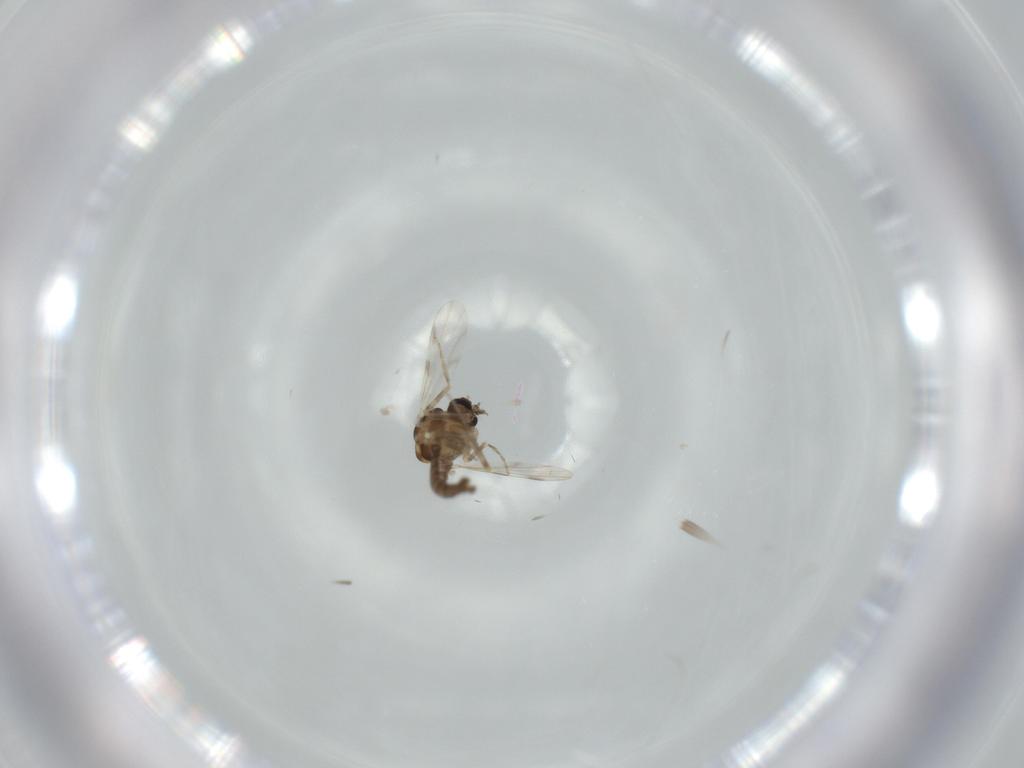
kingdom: Animalia
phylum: Arthropoda
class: Insecta
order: Diptera
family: Ceratopogonidae
